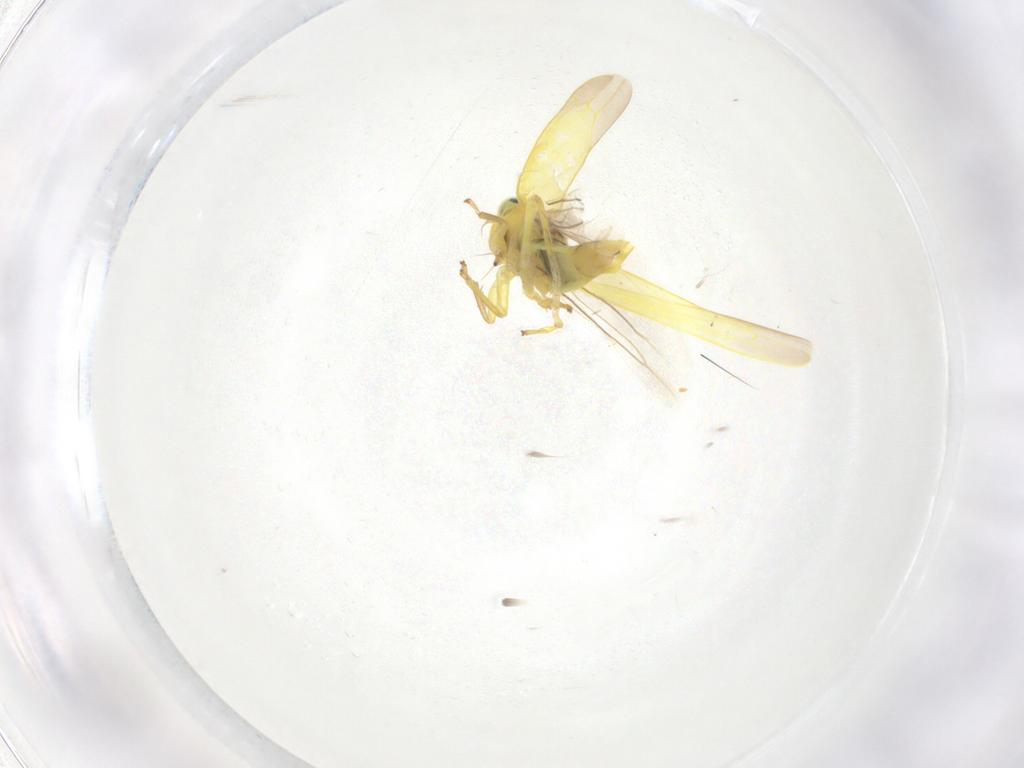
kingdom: Animalia
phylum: Arthropoda
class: Insecta
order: Hemiptera
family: Cicadellidae
